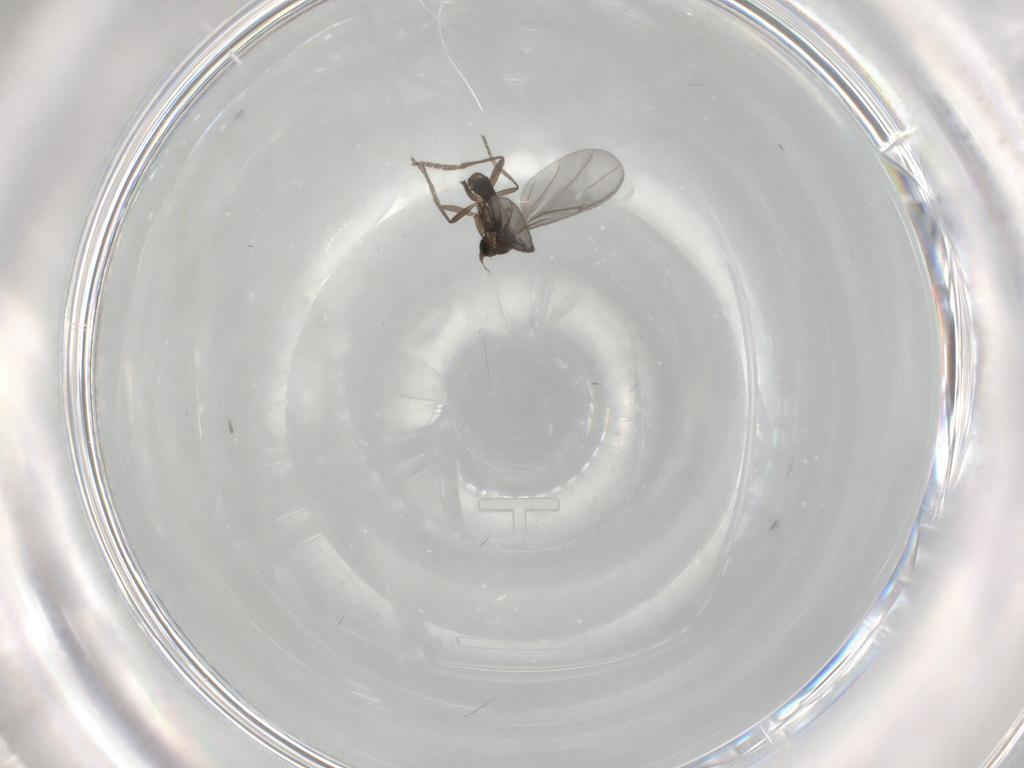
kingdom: Animalia
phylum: Arthropoda
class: Insecta
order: Diptera
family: Phoridae
